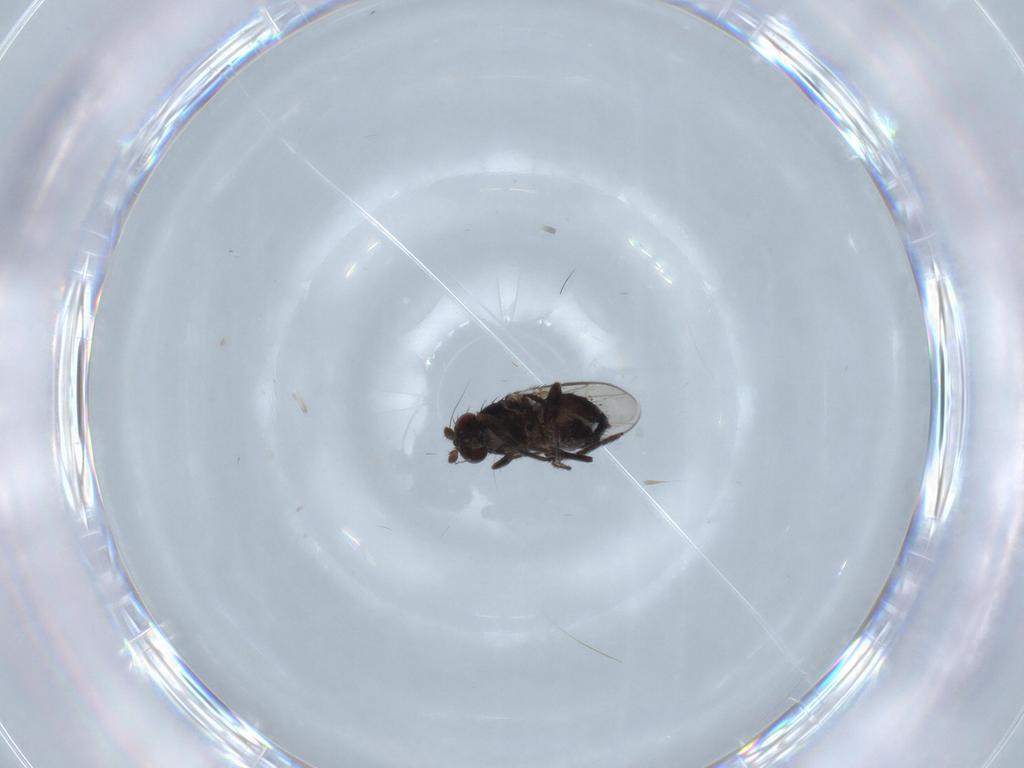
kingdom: Animalia
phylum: Arthropoda
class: Insecta
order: Diptera
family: Sphaeroceridae
